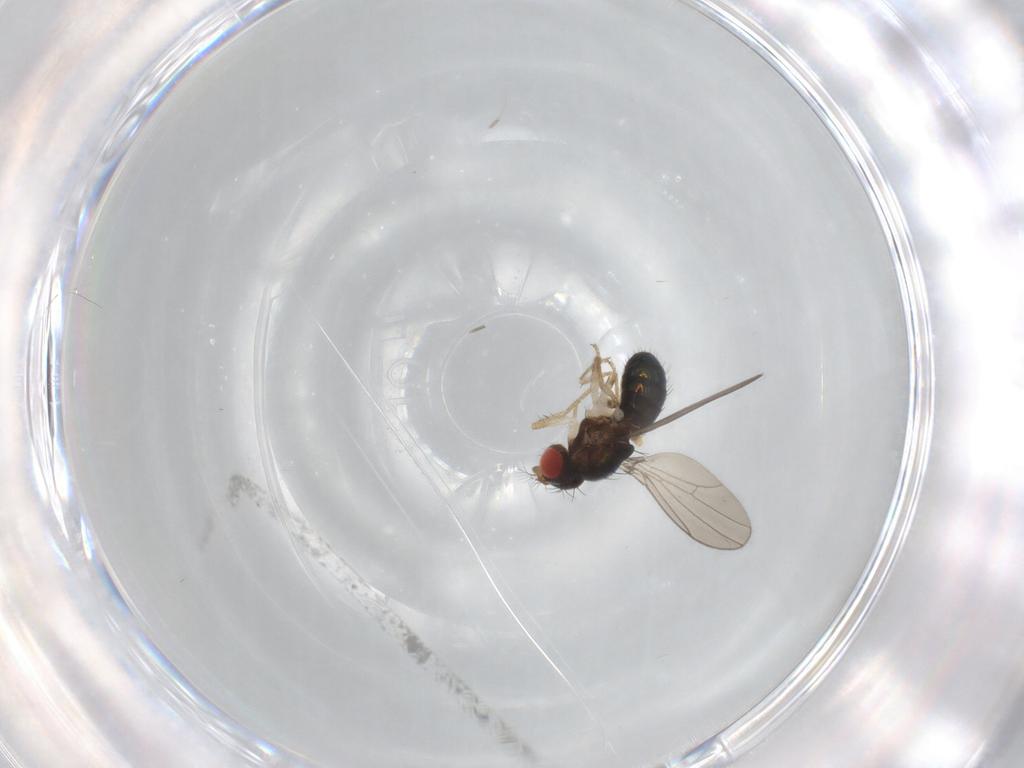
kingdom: Animalia
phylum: Arthropoda
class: Insecta
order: Diptera
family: Drosophilidae
